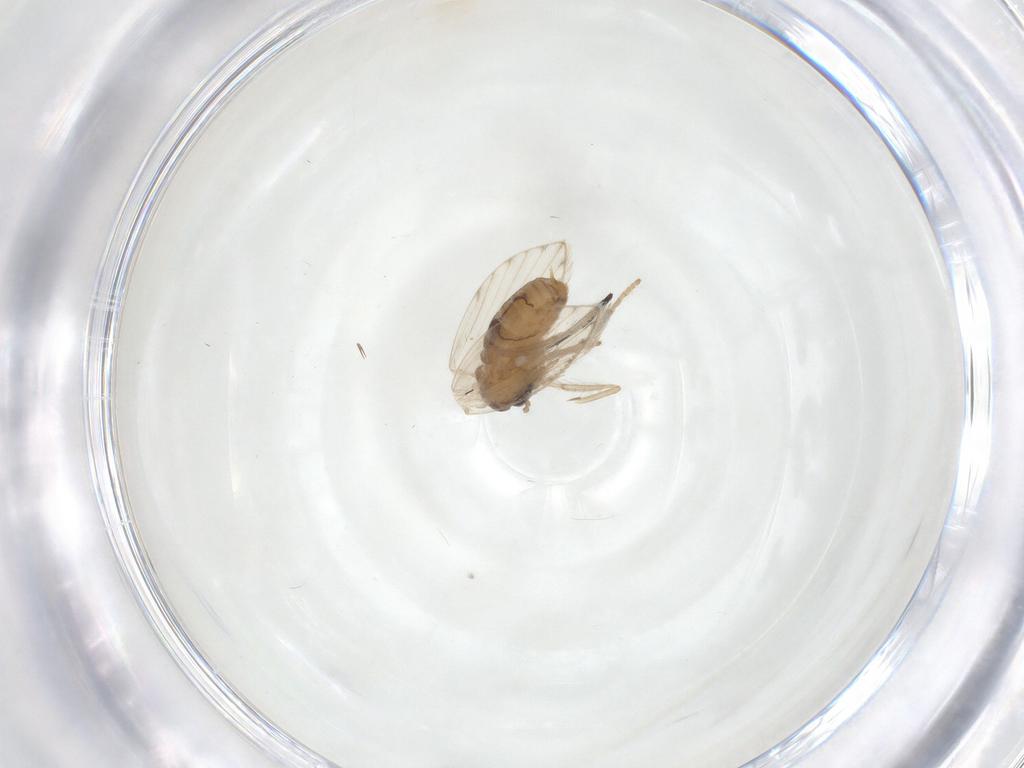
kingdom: Animalia
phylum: Arthropoda
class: Insecta
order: Diptera
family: Psychodidae
